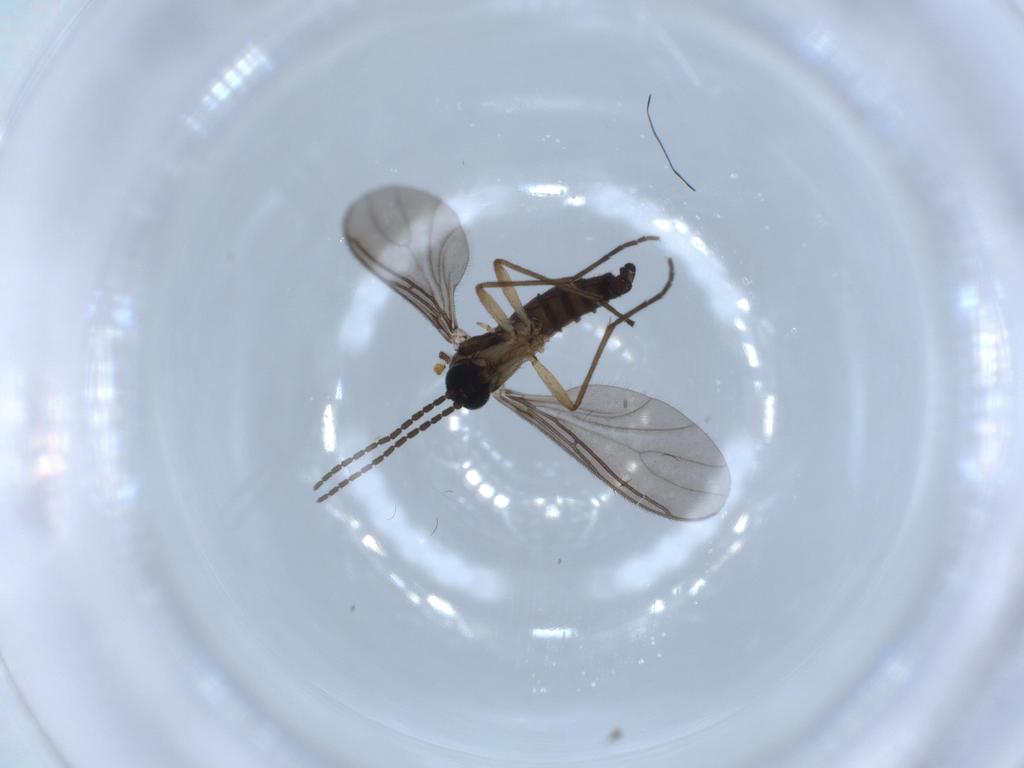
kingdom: Animalia
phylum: Arthropoda
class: Insecta
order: Diptera
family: Sciaridae
